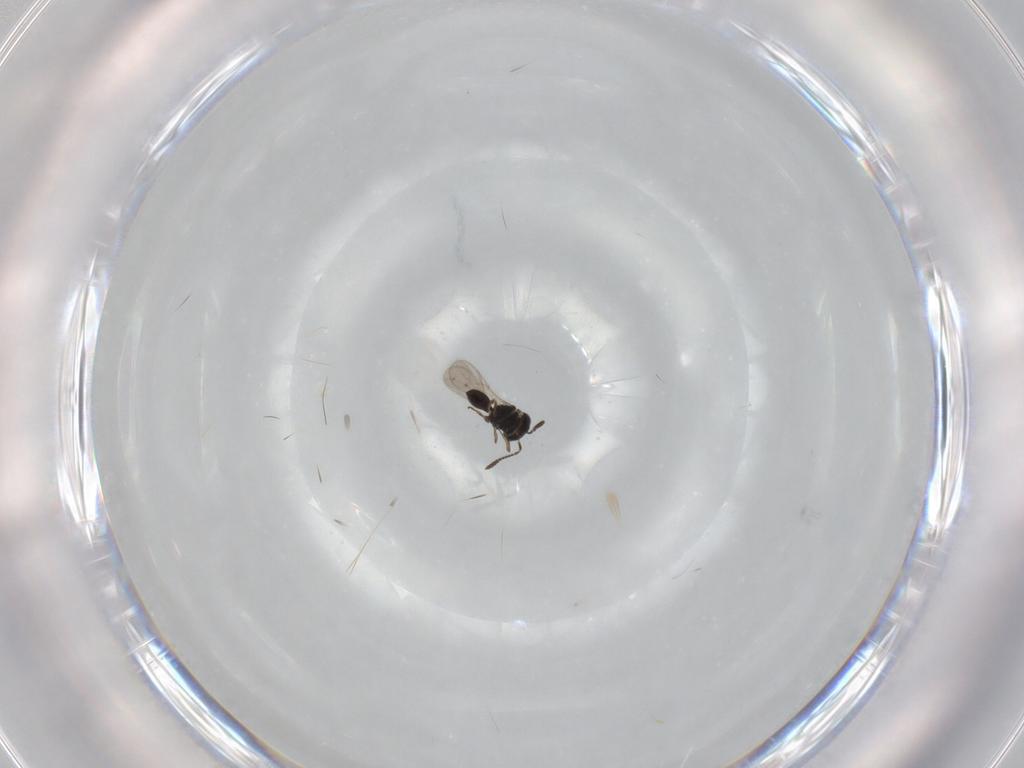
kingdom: Animalia
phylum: Arthropoda
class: Insecta
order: Hymenoptera
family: Scelionidae
